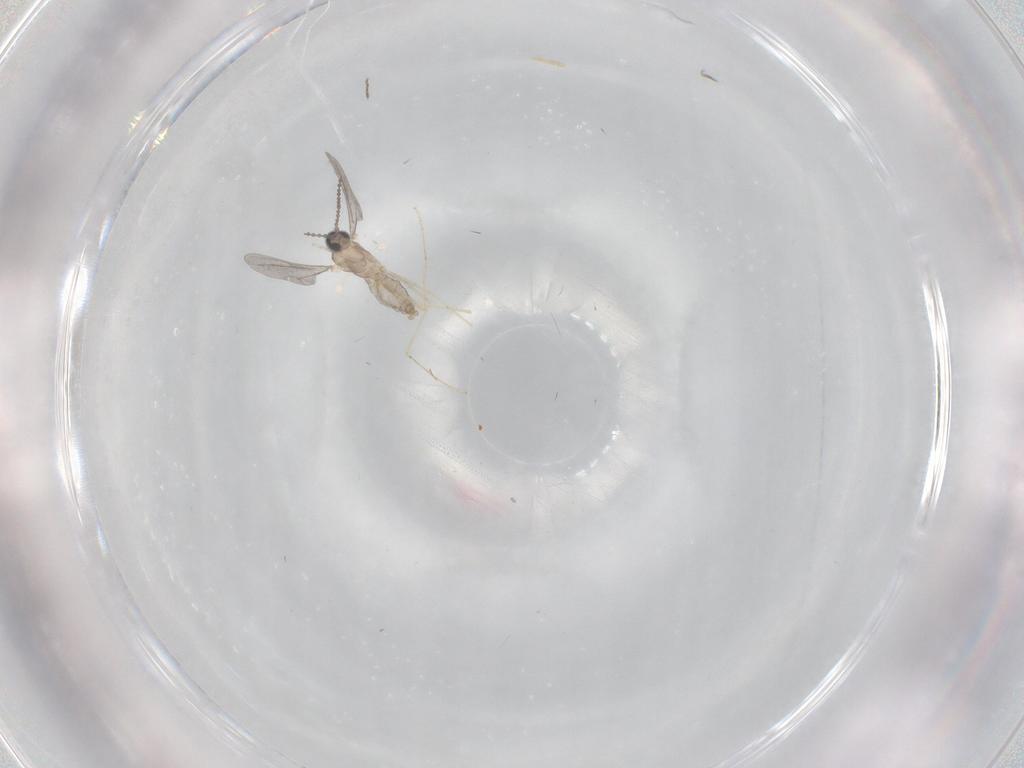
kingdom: Animalia
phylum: Arthropoda
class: Insecta
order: Diptera
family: Cecidomyiidae
